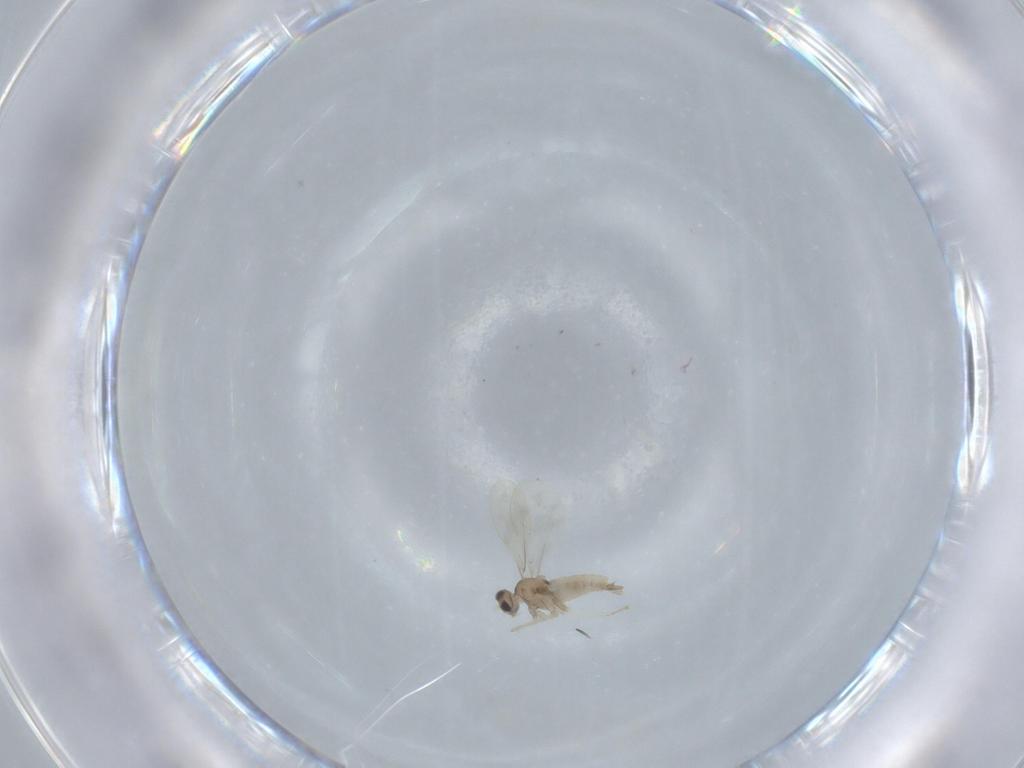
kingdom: Animalia
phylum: Arthropoda
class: Insecta
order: Diptera
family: Cecidomyiidae
